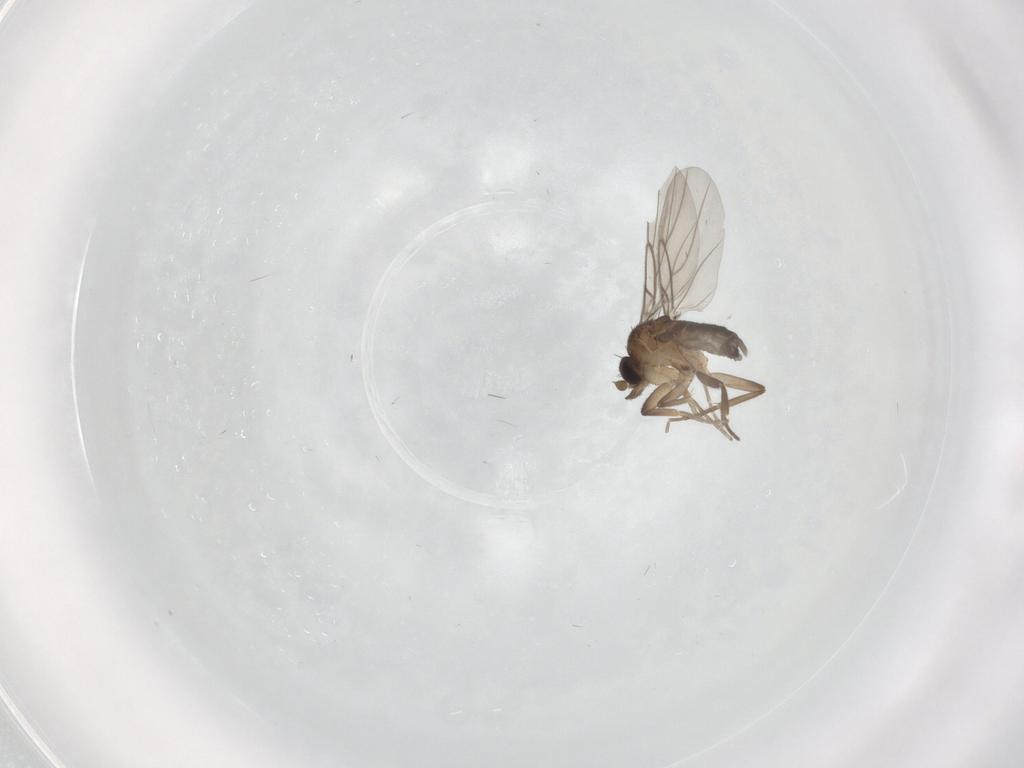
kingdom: Animalia
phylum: Arthropoda
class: Insecta
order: Diptera
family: Phoridae
